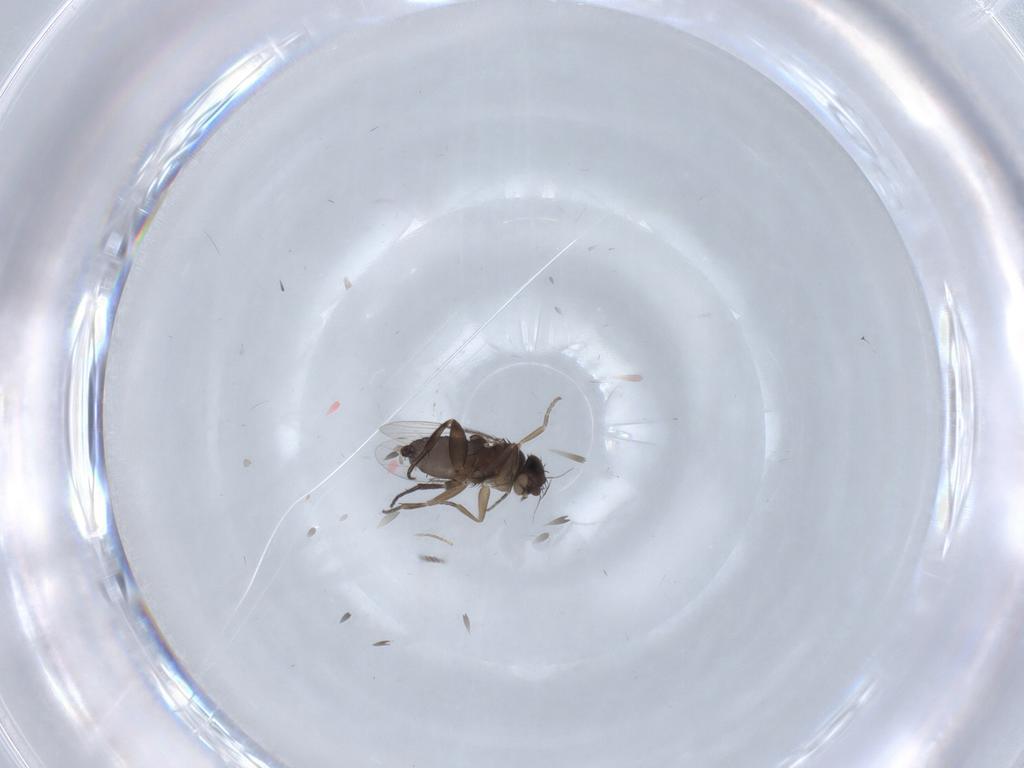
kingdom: Animalia
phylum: Arthropoda
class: Insecta
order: Diptera
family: Phoridae
